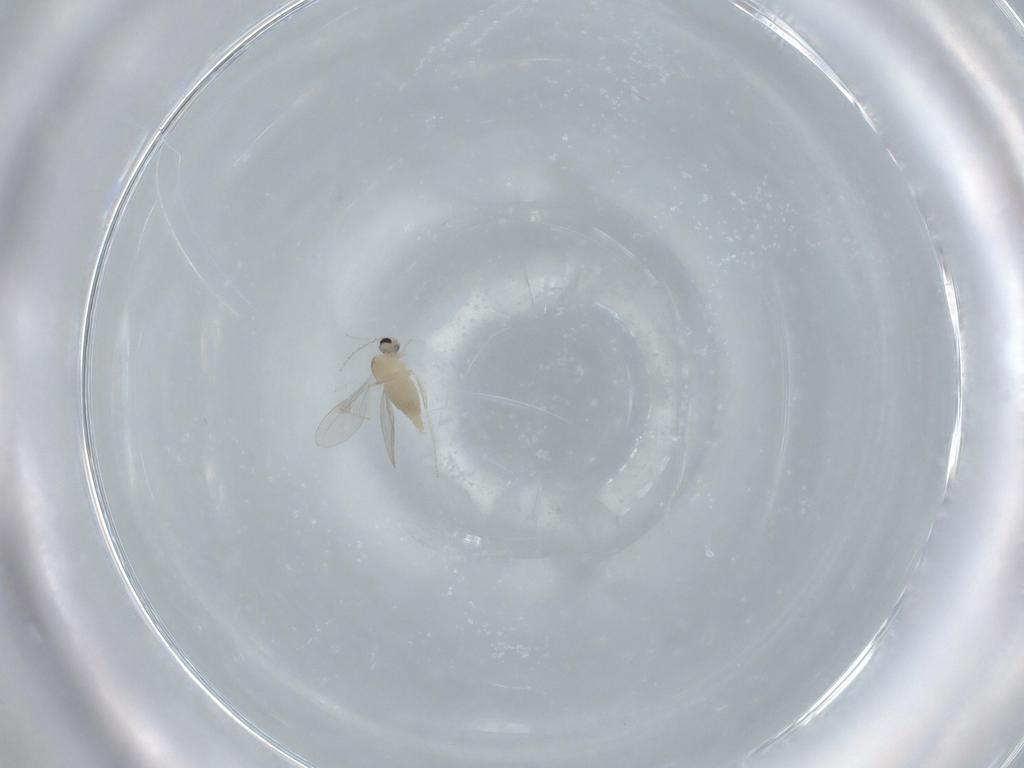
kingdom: Animalia
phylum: Arthropoda
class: Insecta
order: Diptera
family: Cecidomyiidae
